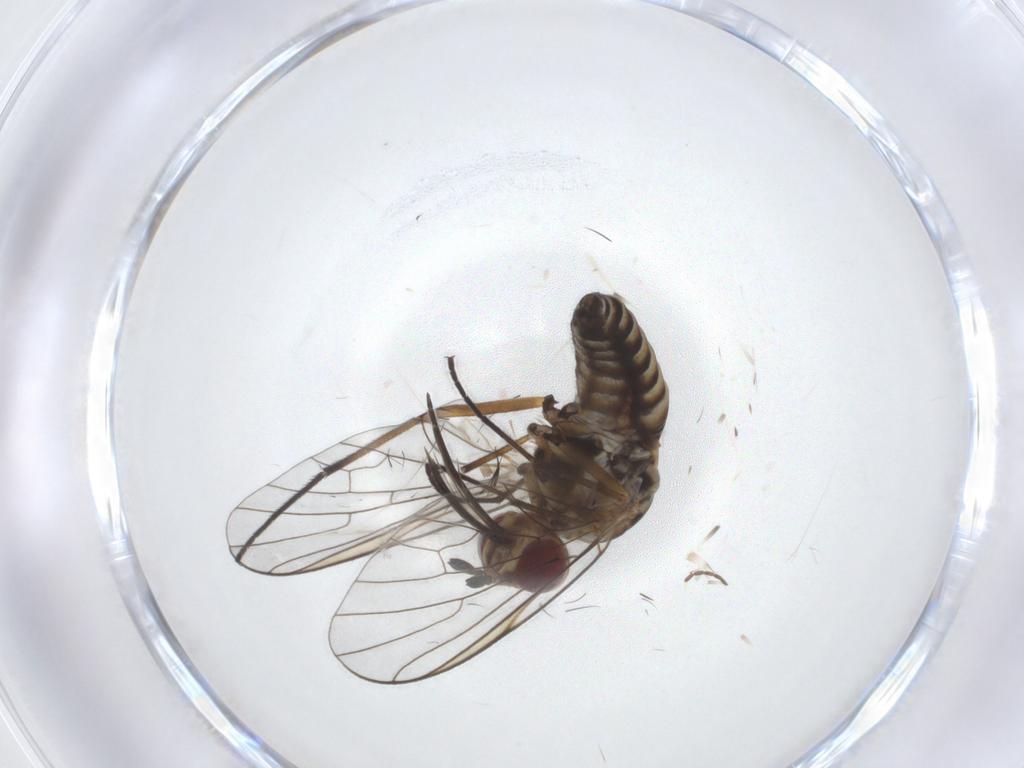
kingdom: Animalia
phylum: Arthropoda
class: Insecta
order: Diptera
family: Bombyliidae
